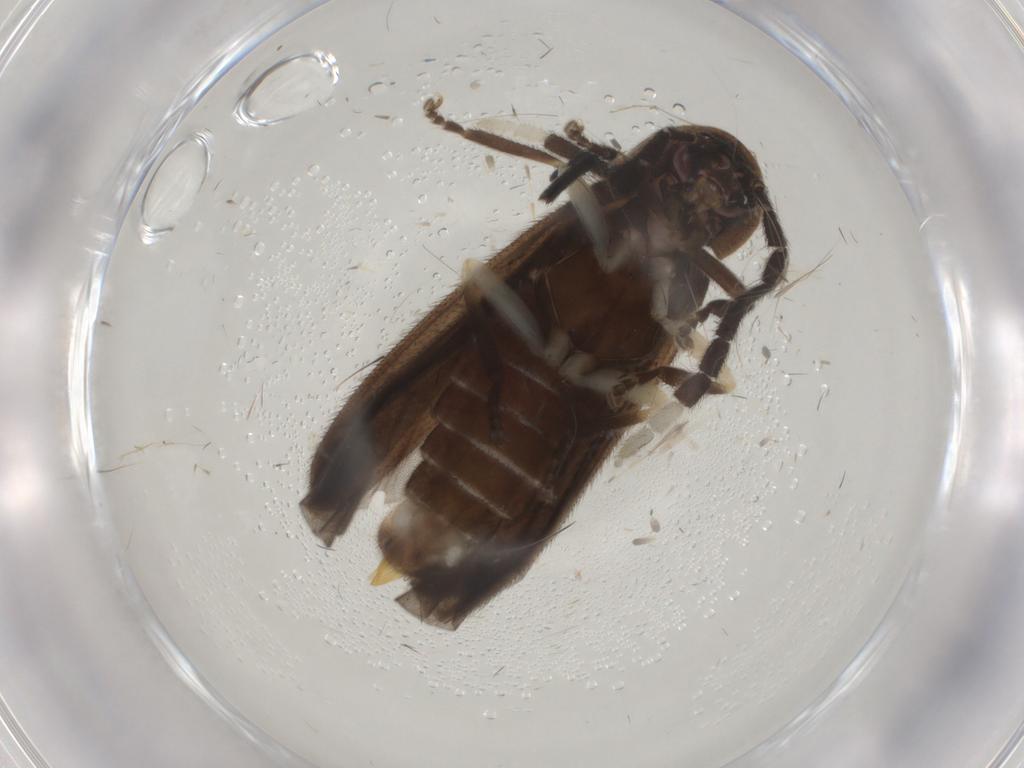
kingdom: Animalia
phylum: Arthropoda
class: Insecta
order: Coleoptera
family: Lampyridae
